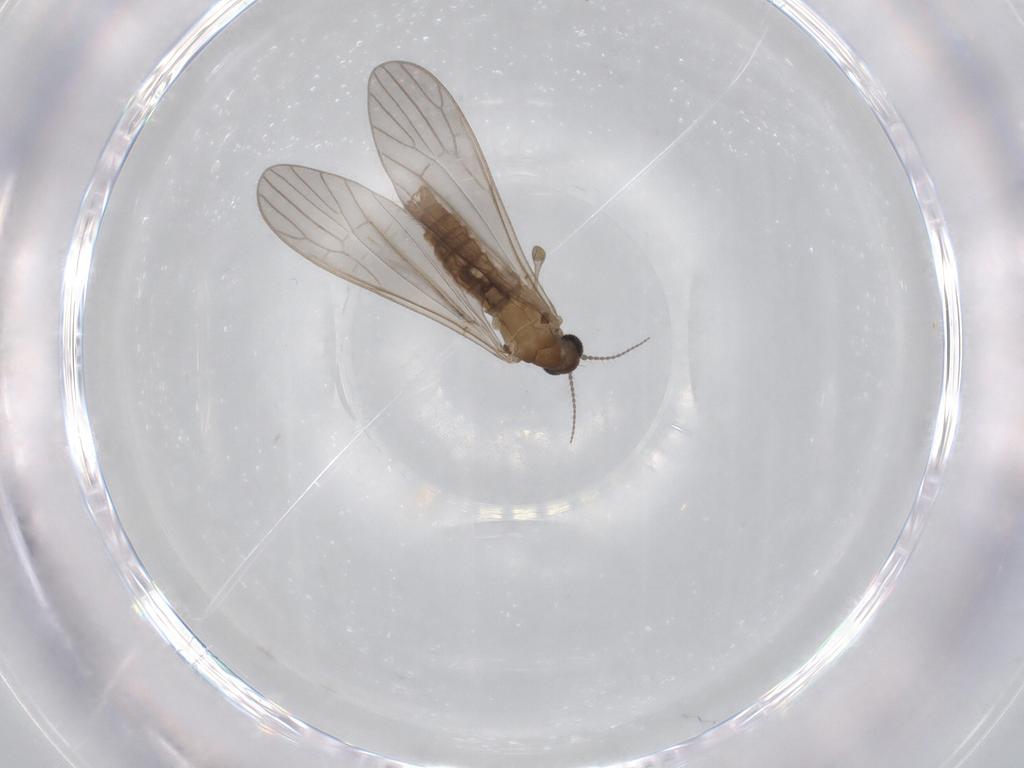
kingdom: Animalia
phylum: Arthropoda
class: Insecta
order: Diptera
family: Limoniidae
